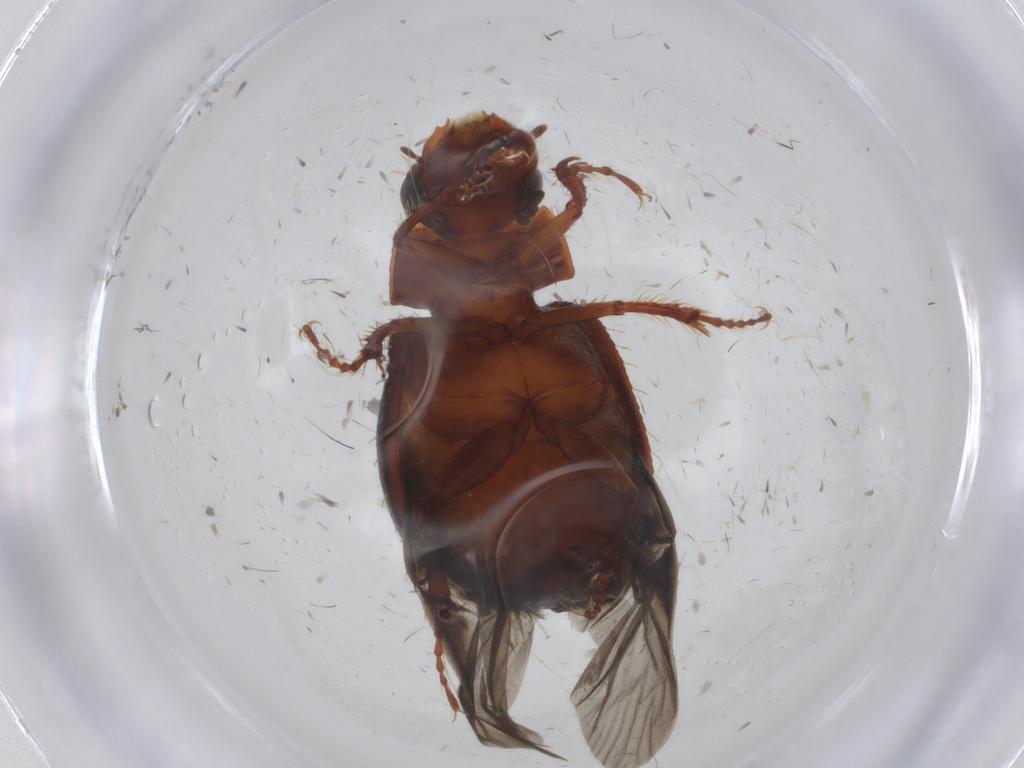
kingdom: Animalia
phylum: Arthropoda
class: Insecta
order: Coleoptera
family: Hybosoridae
